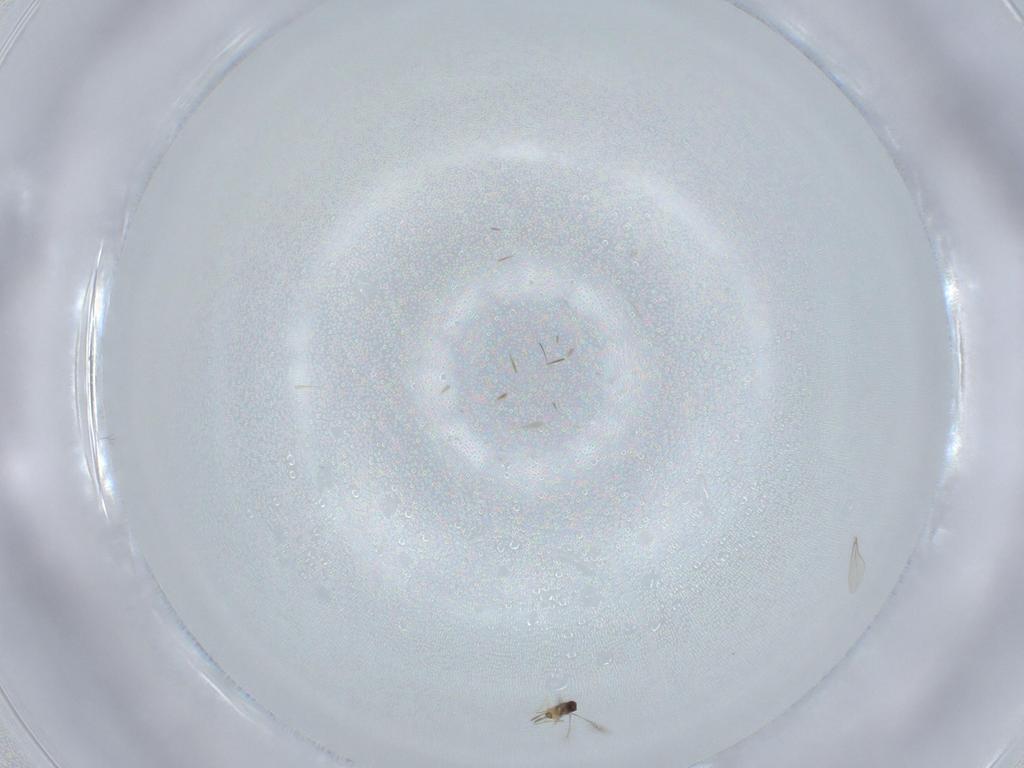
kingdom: Animalia
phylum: Arthropoda
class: Insecta
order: Diptera
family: Cecidomyiidae
